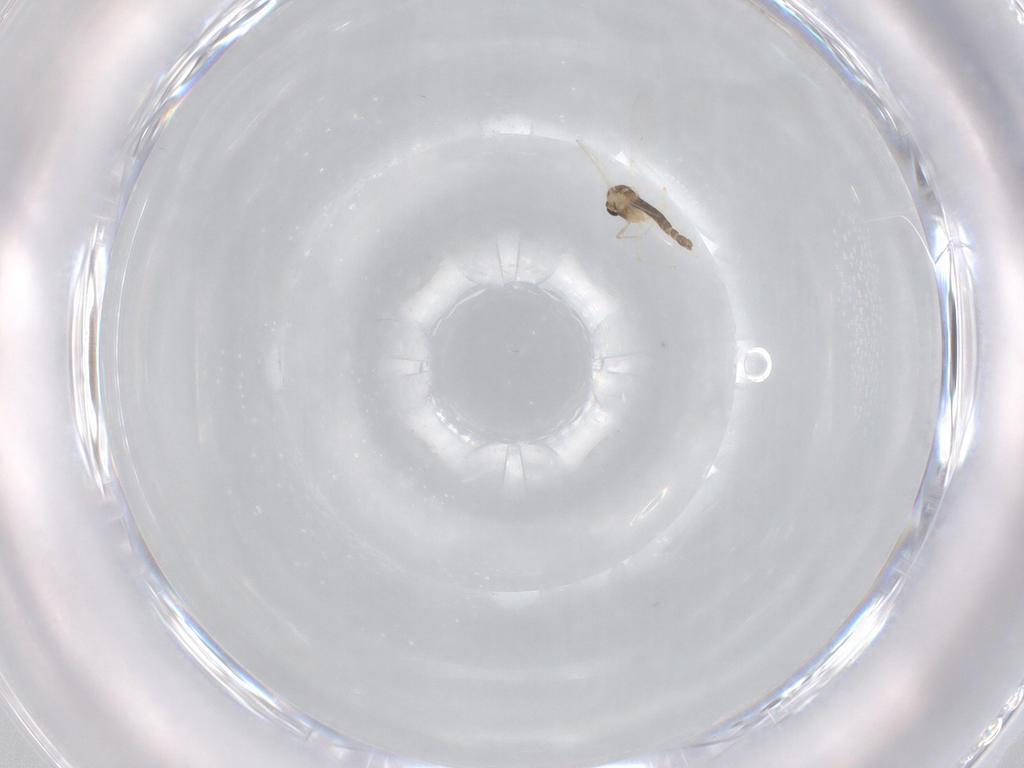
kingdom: Animalia
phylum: Arthropoda
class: Insecta
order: Diptera
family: Chironomidae
